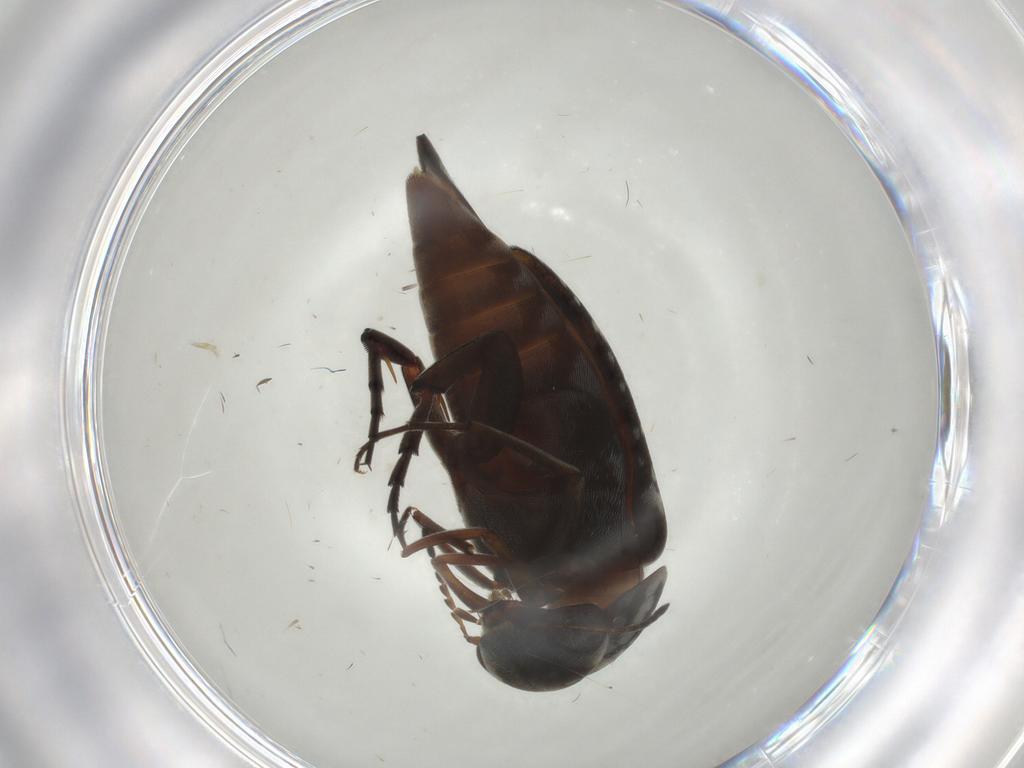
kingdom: Animalia
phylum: Arthropoda
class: Insecta
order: Coleoptera
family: Mordellidae
